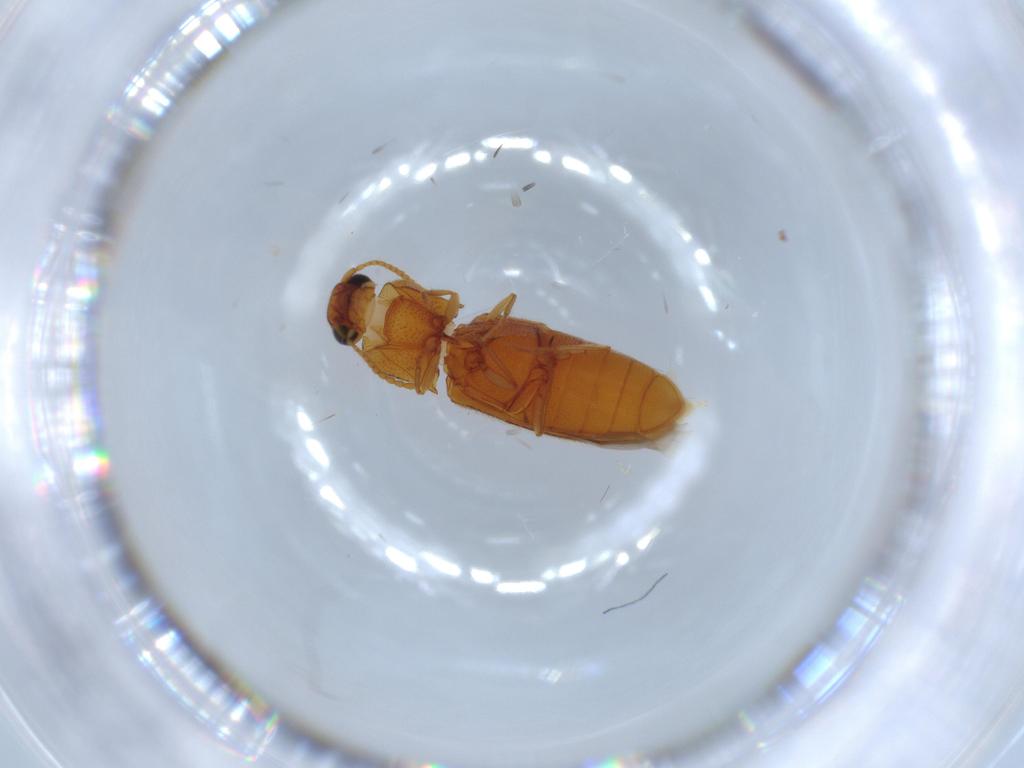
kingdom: Animalia
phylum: Arthropoda
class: Insecta
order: Coleoptera
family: Elateridae
